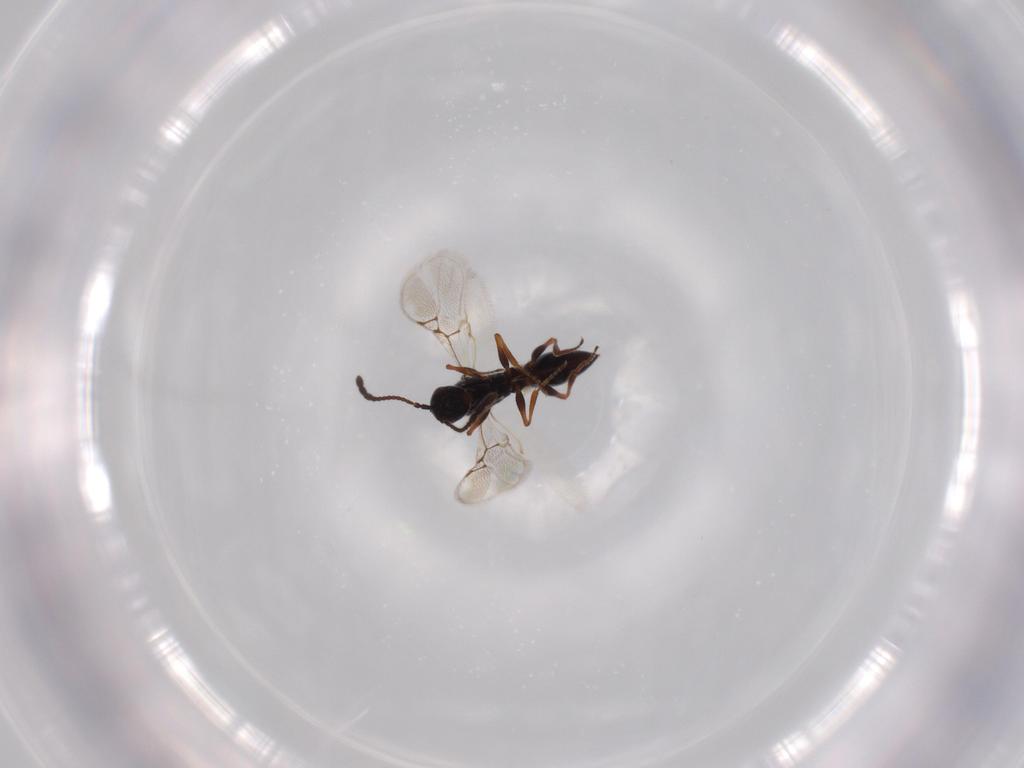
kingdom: Animalia
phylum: Arthropoda
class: Insecta
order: Hymenoptera
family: Figitidae
